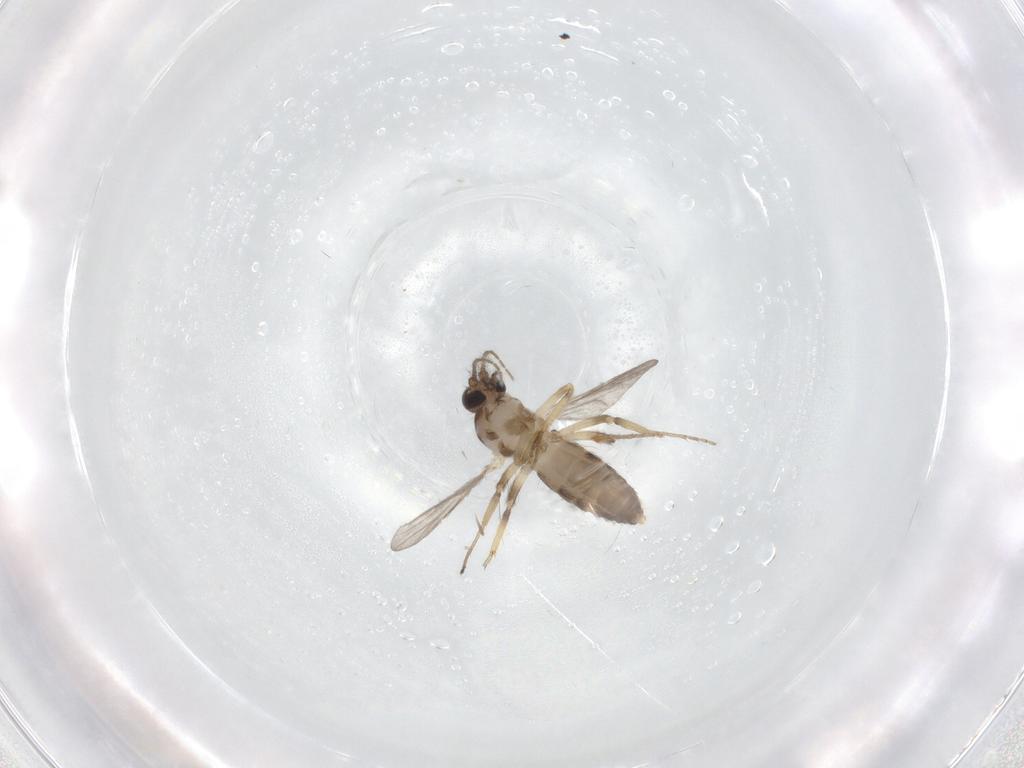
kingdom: Animalia
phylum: Arthropoda
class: Insecta
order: Diptera
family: Ceratopogonidae
